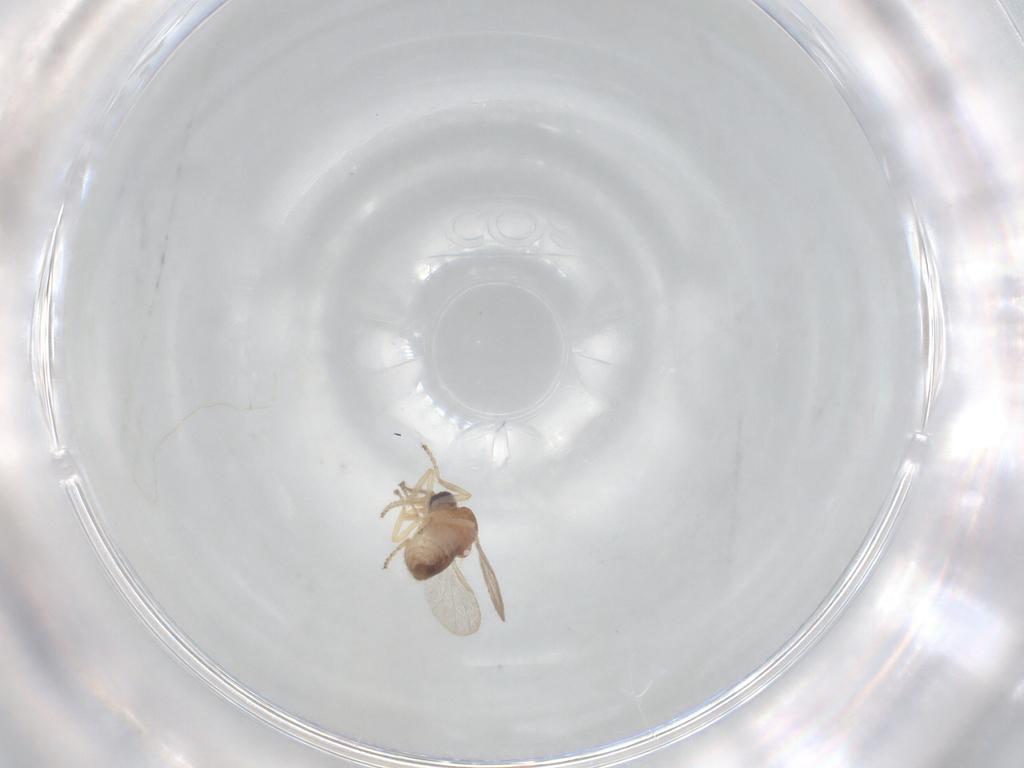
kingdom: Animalia
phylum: Arthropoda
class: Insecta
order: Diptera
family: Ceratopogonidae
